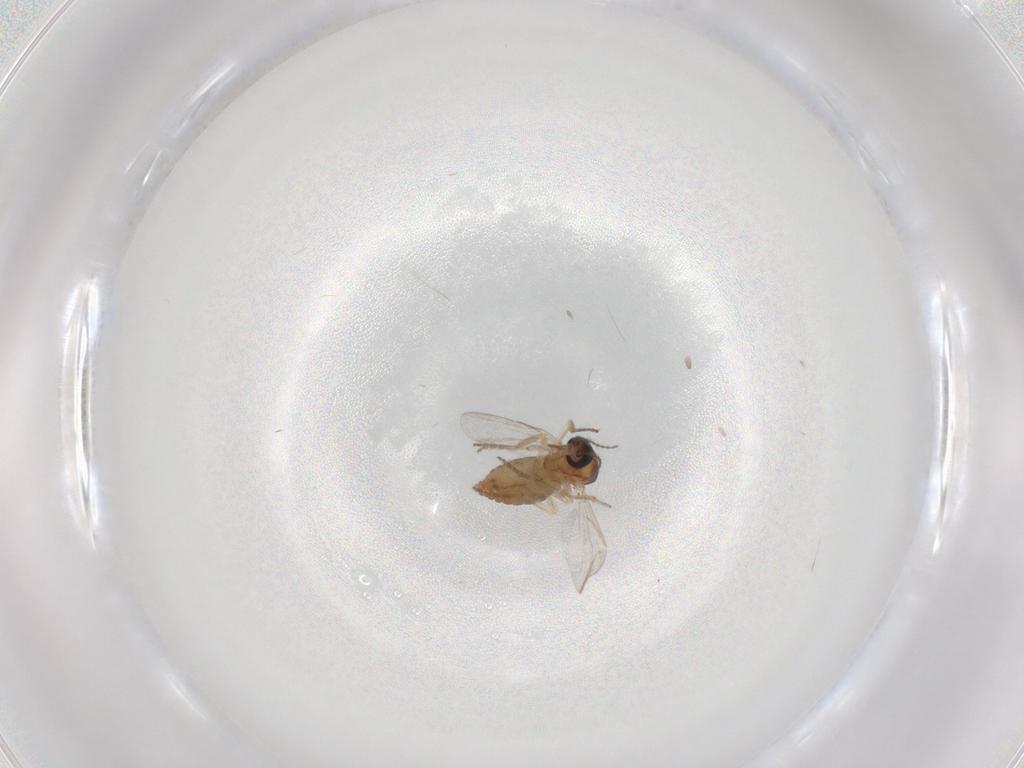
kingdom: Animalia
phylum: Arthropoda
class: Insecta
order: Diptera
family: Ceratopogonidae
